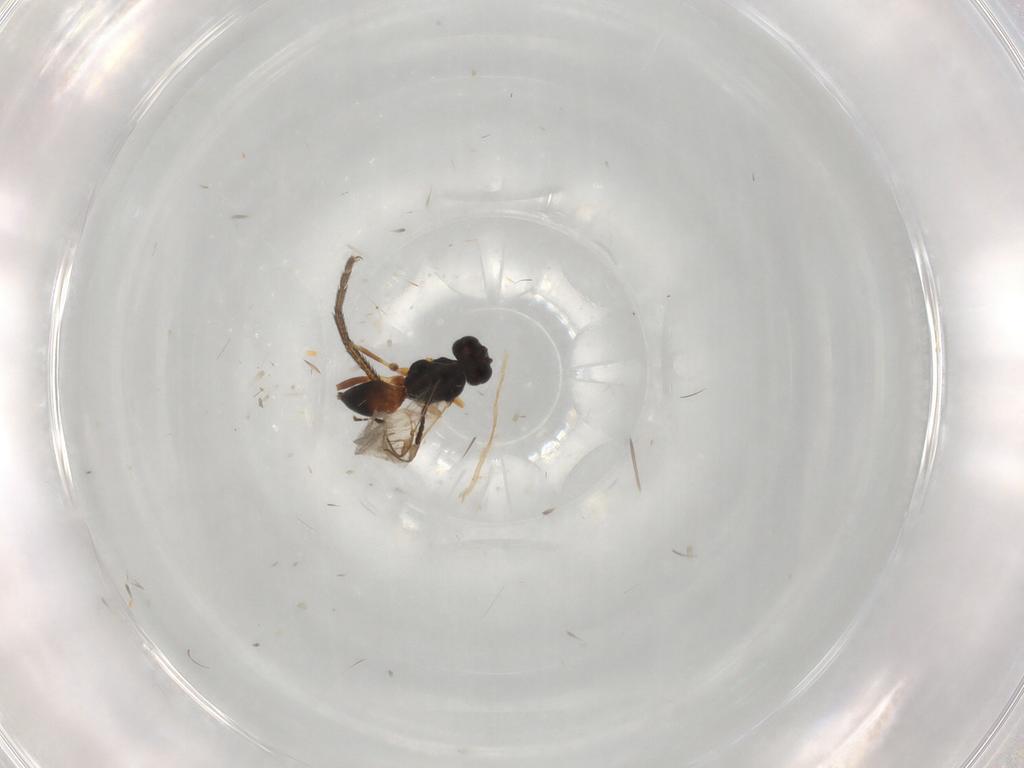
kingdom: Animalia
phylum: Arthropoda
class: Insecta
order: Hymenoptera
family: Braconidae
